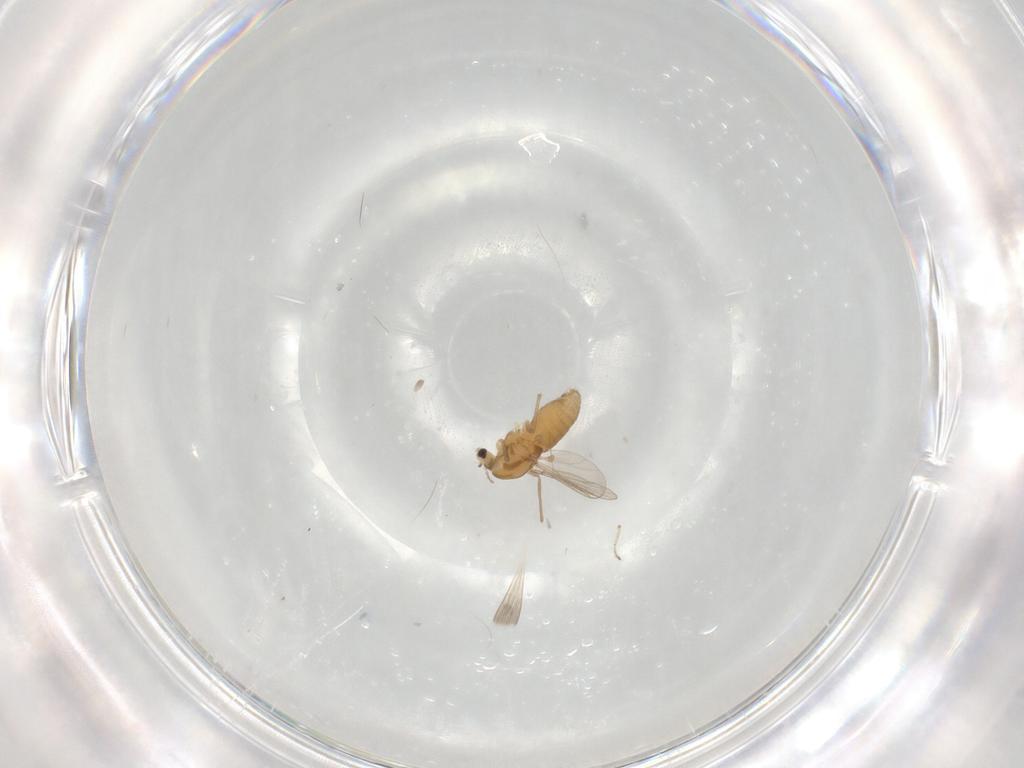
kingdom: Animalia
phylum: Arthropoda
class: Insecta
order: Diptera
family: Chironomidae
